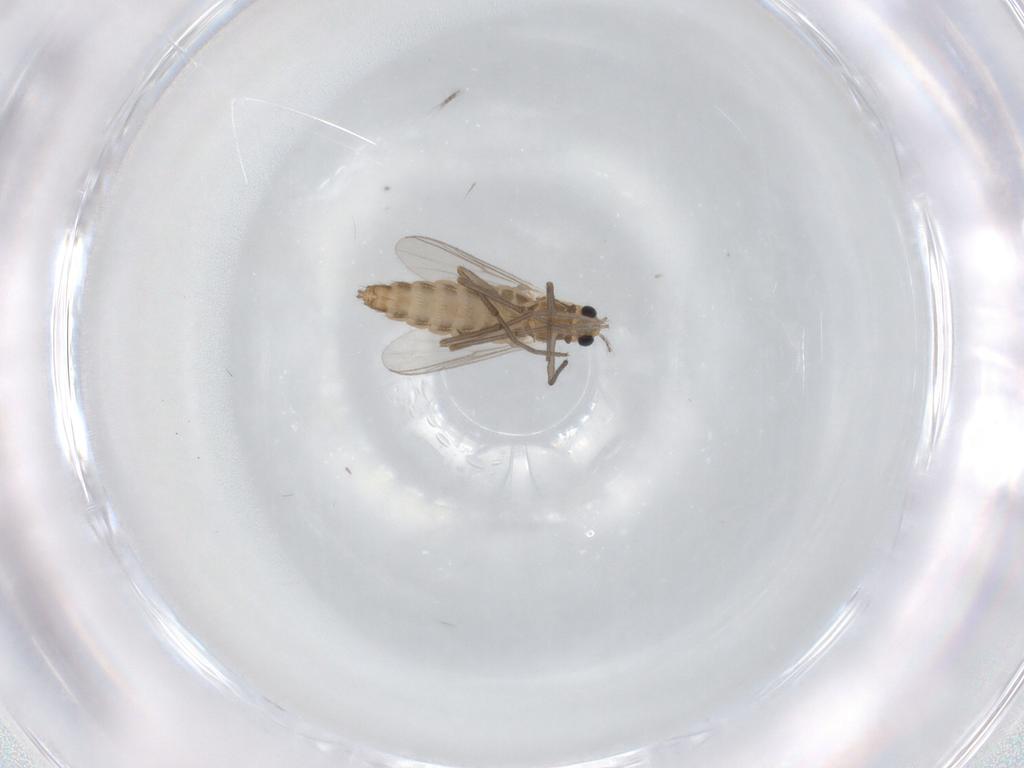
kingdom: Animalia
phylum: Arthropoda
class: Insecta
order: Diptera
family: Chironomidae
